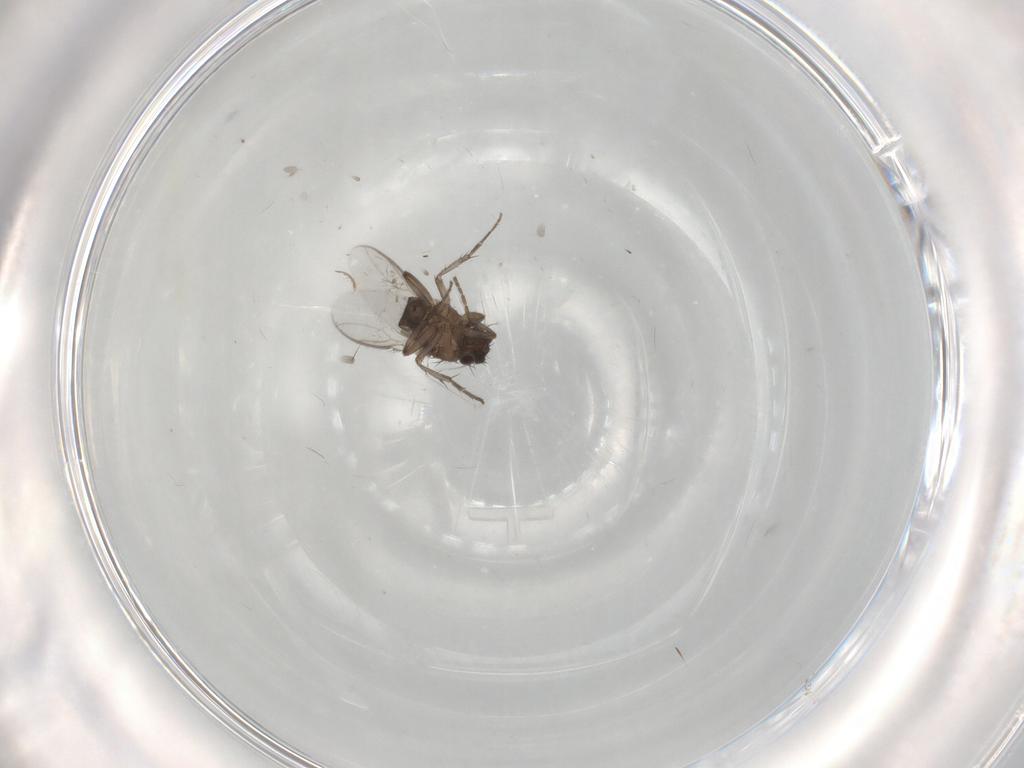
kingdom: Animalia
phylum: Arthropoda
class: Insecta
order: Diptera
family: Sphaeroceridae
